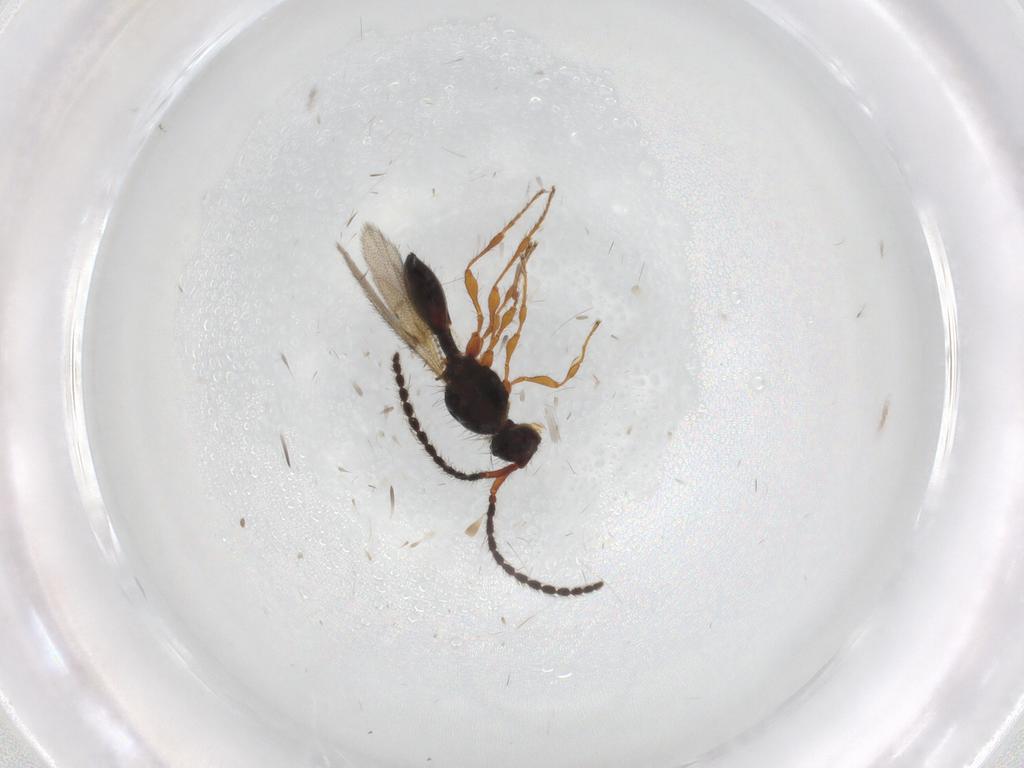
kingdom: Animalia
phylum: Arthropoda
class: Insecta
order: Hymenoptera
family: Diapriidae
